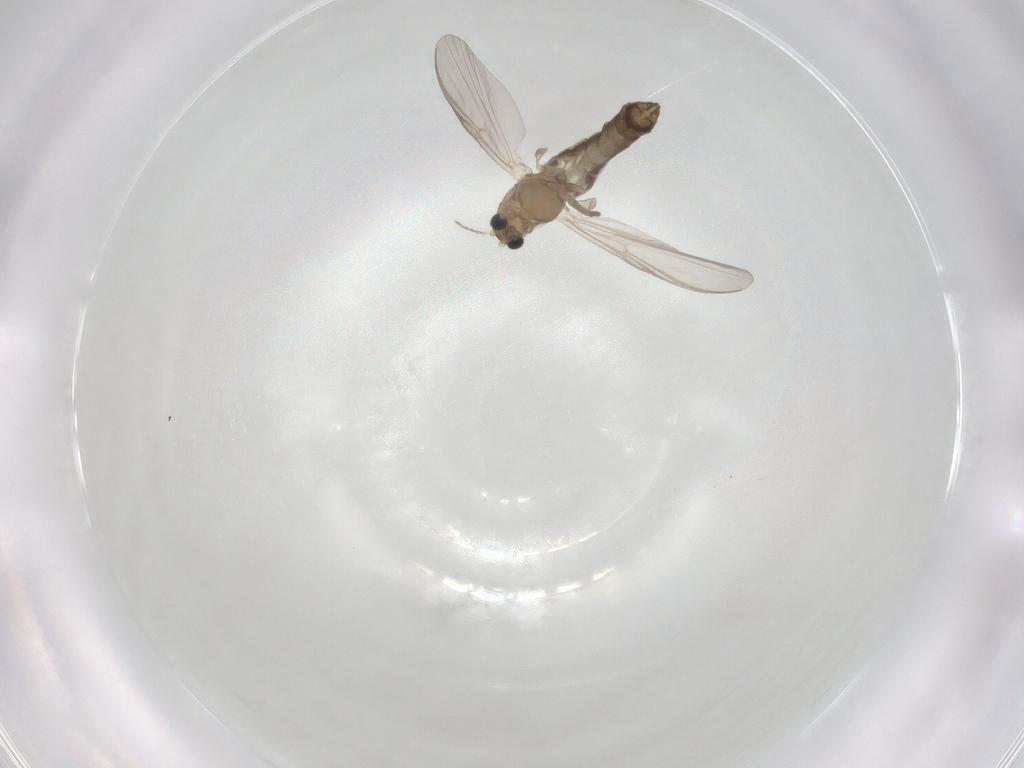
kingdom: Animalia
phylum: Arthropoda
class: Insecta
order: Diptera
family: Chironomidae
